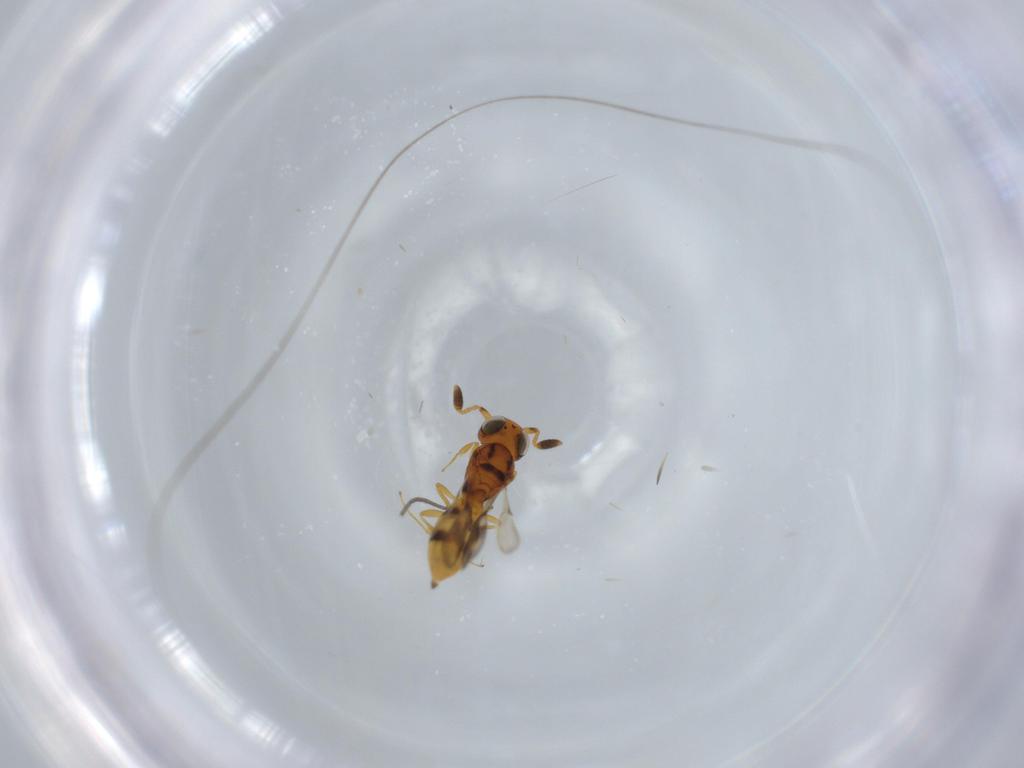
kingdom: Animalia
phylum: Arthropoda
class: Insecta
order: Hymenoptera
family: Scelionidae
